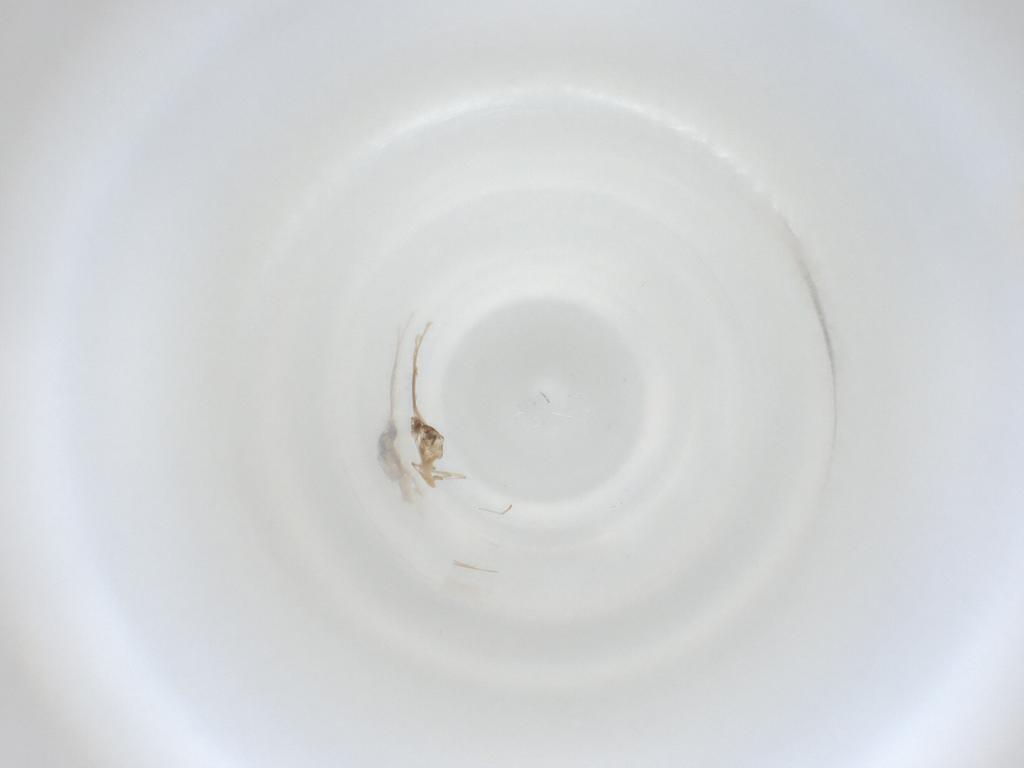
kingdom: Animalia
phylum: Arthropoda
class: Insecta
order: Diptera
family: Cecidomyiidae
